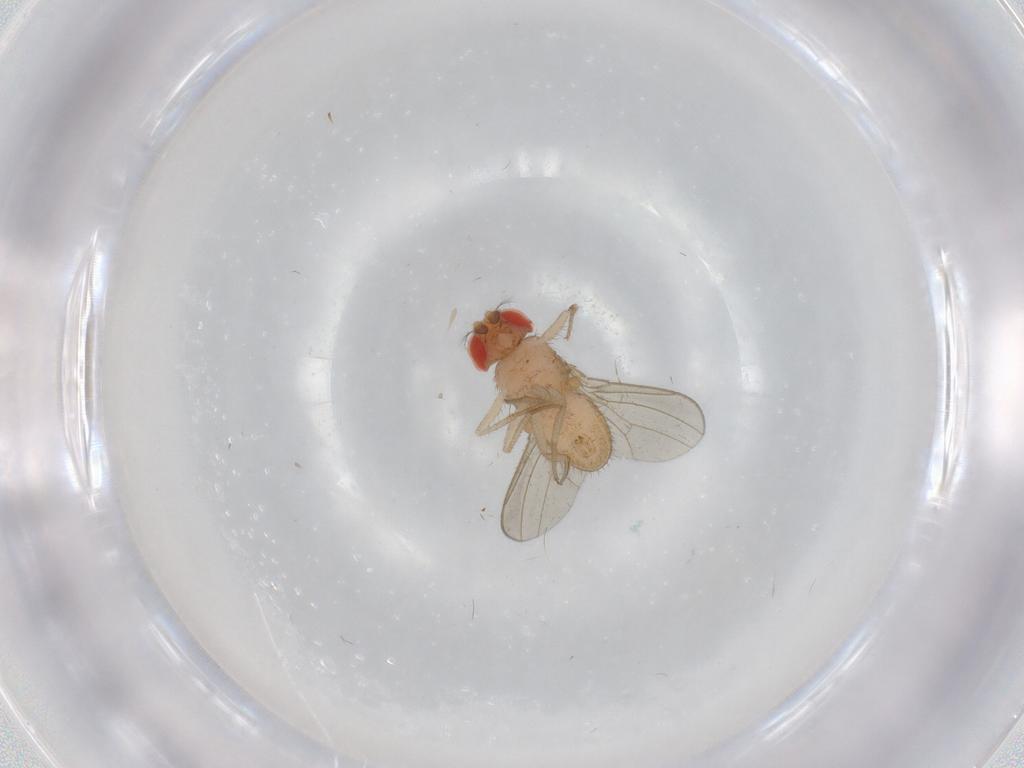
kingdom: Animalia
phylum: Arthropoda
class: Insecta
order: Diptera
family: Drosophilidae
